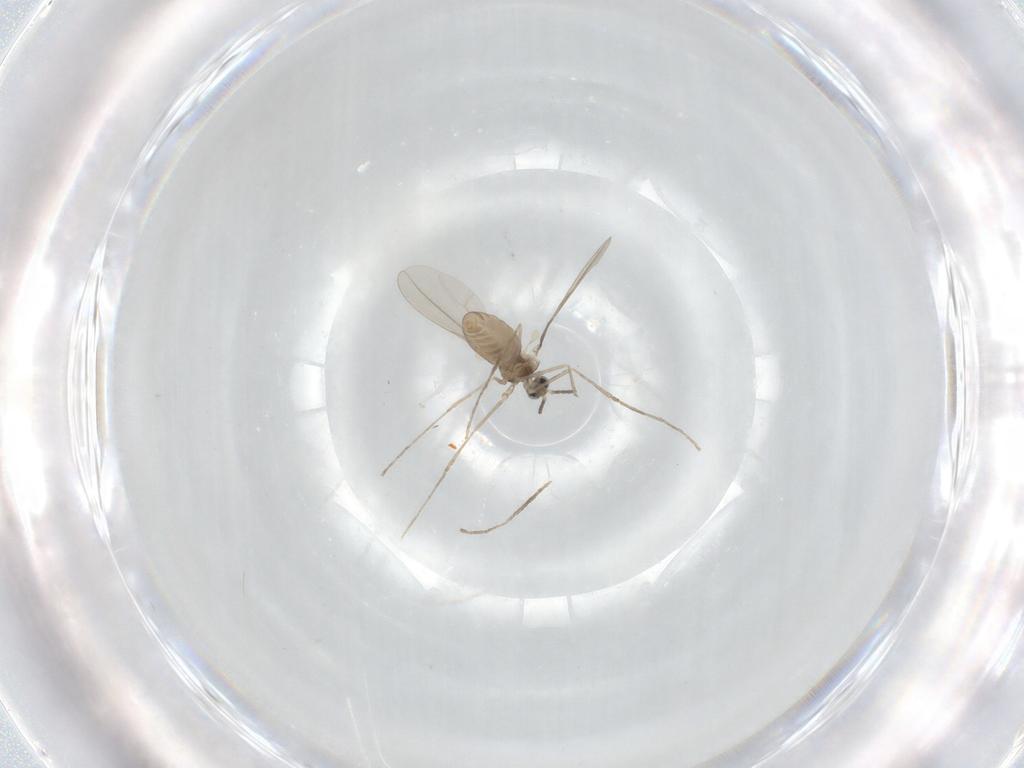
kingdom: Animalia
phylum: Arthropoda
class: Insecta
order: Diptera
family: Cecidomyiidae
